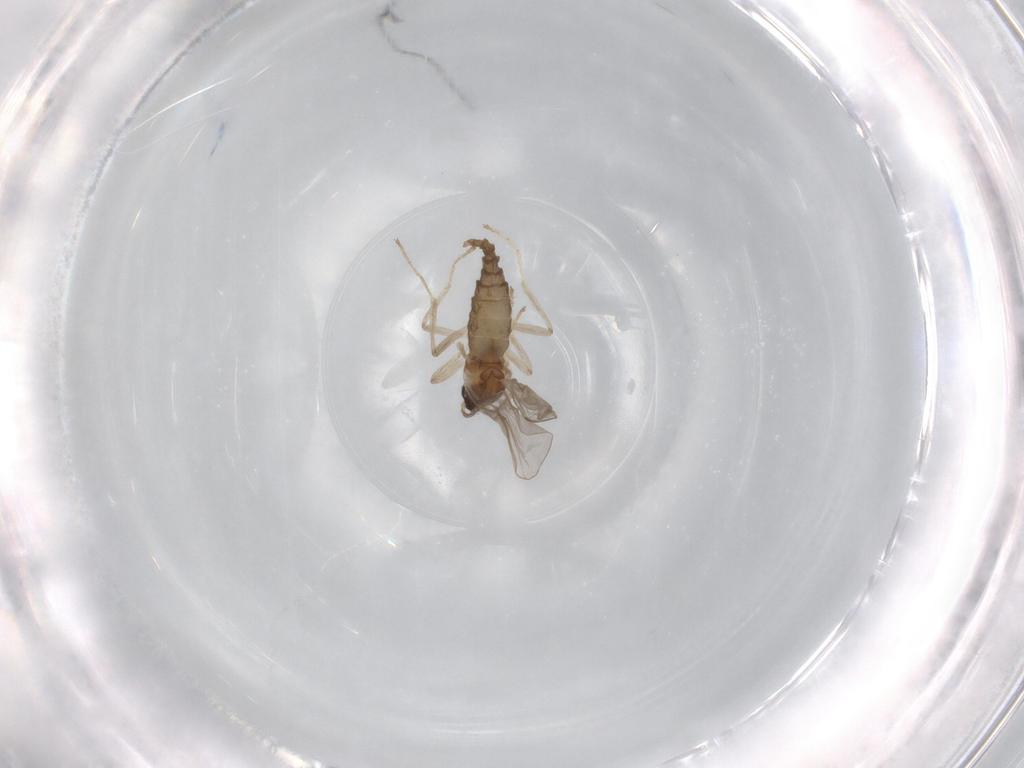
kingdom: Animalia
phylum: Arthropoda
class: Insecta
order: Diptera
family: Cecidomyiidae
